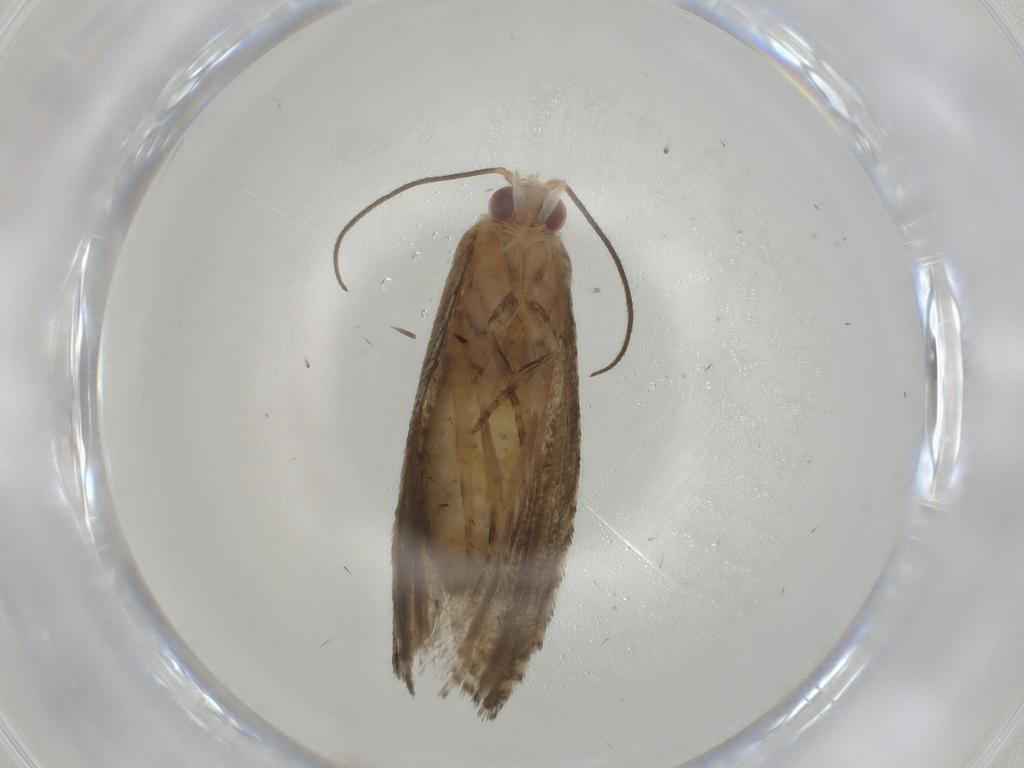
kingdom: Animalia
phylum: Arthropoda
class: Insecta
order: Lepidoptera
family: Tortricidae
